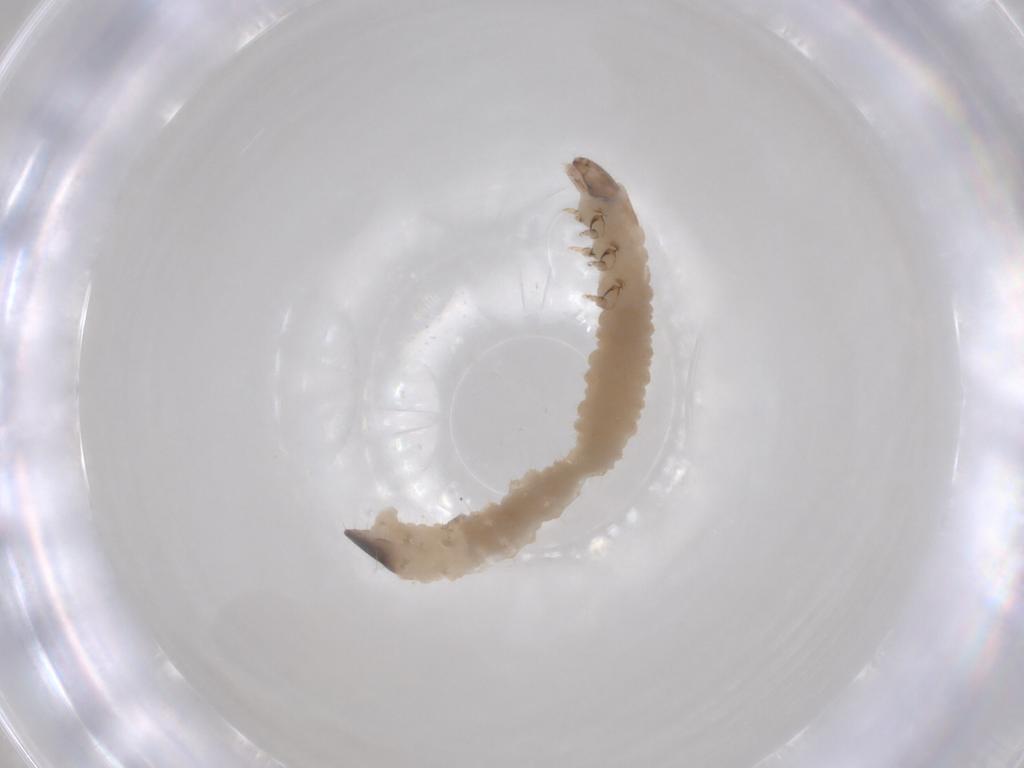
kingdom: Animalia
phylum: Arthropoda
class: Insecta
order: Coleoptera
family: Chrysomelidae
